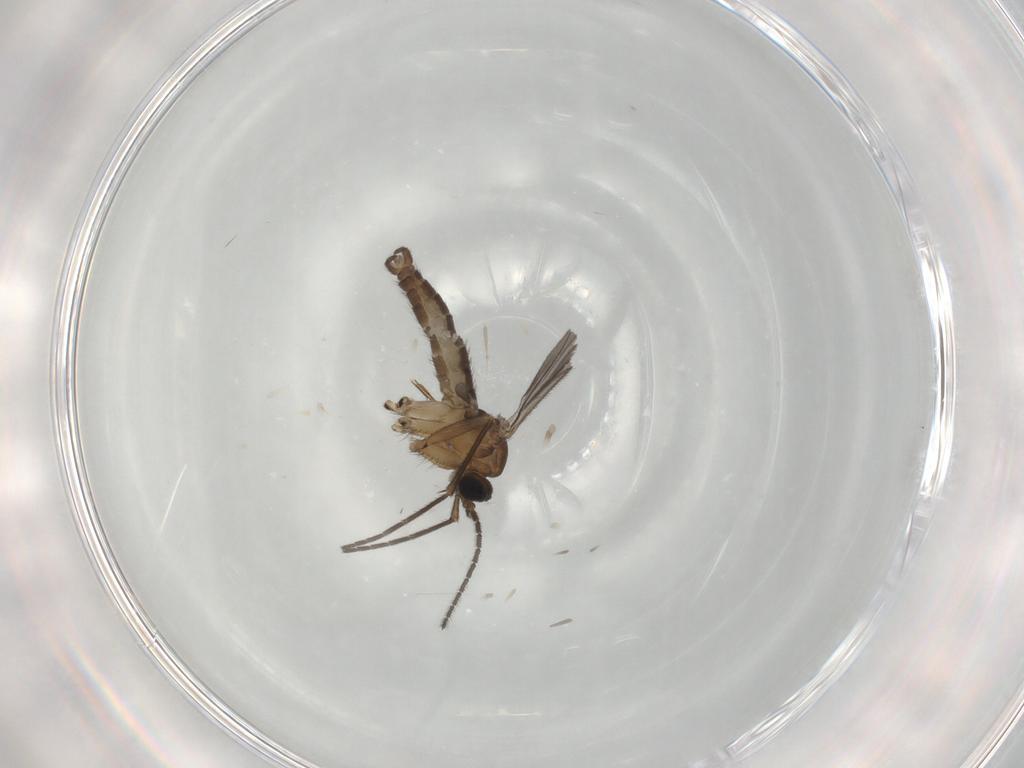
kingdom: Animalia
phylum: Arthropoda
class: Insecta
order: Diptera
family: Sciaridae
